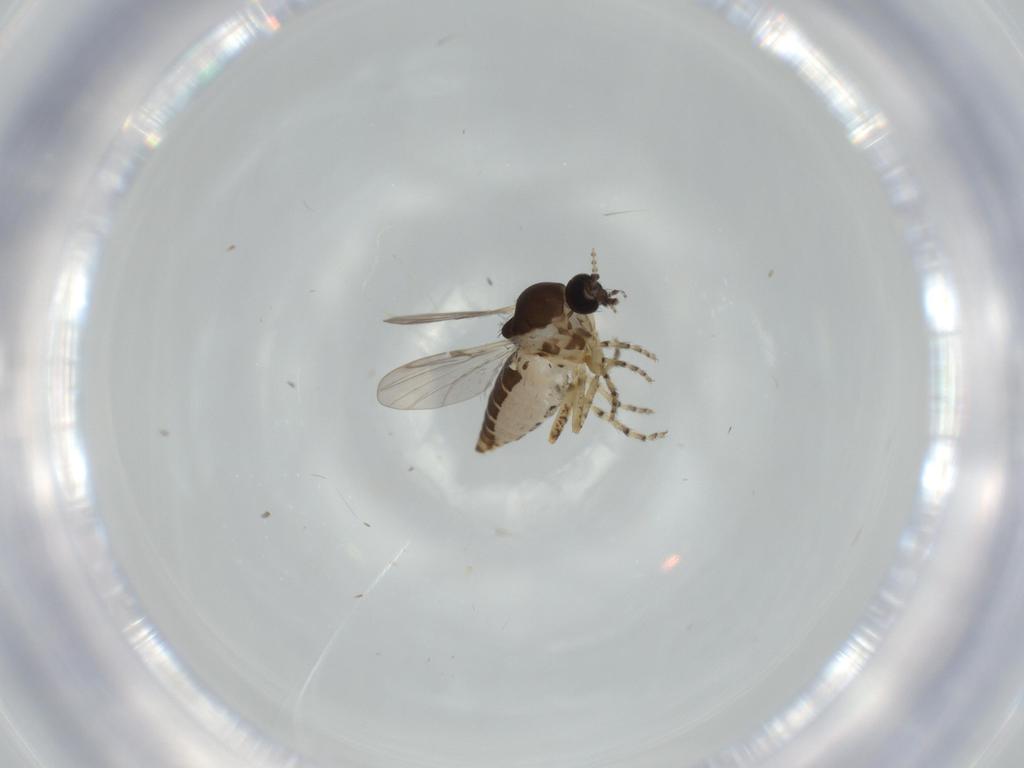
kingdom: Animalia
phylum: Arthropoda
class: Insecta
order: Diptera
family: Ceratopogonidae
